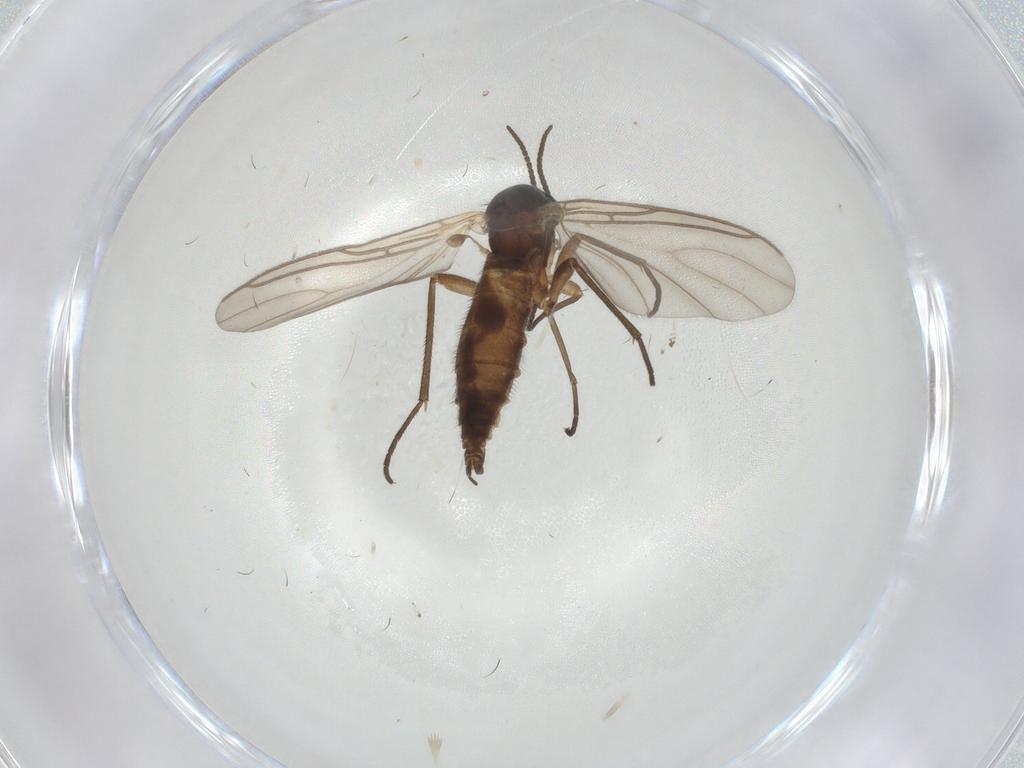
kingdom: Animalia
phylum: Arthropoda
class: Insecta
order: Diptera
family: Sciaridae
